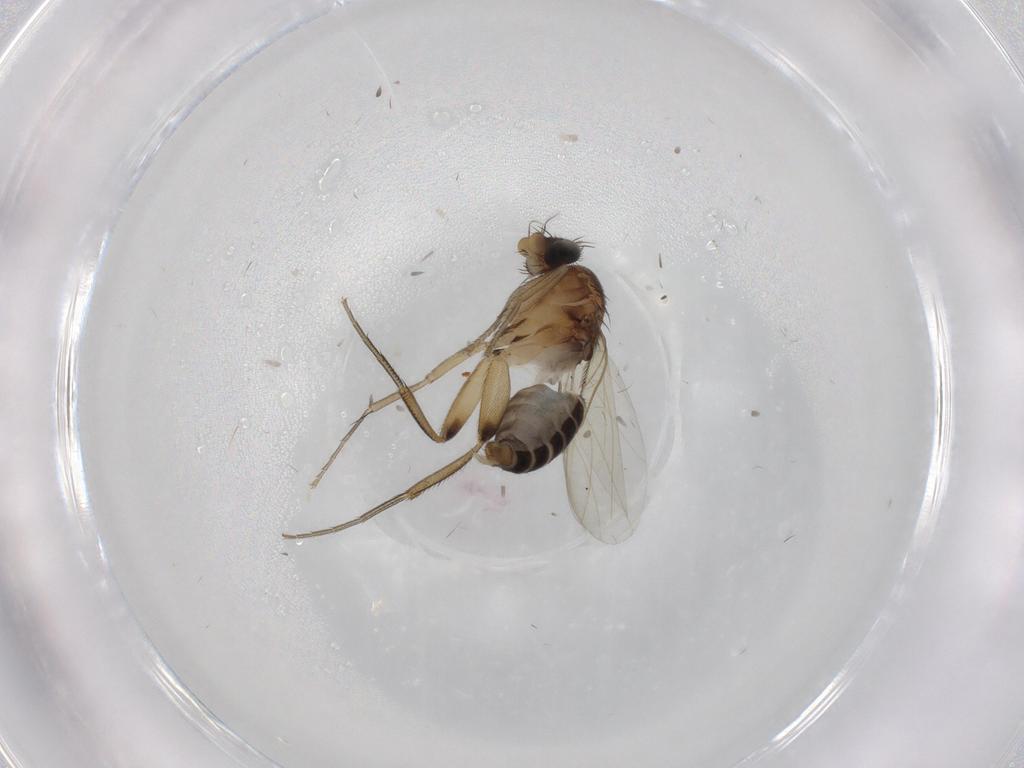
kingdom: Animalia
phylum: Arthropoda
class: Insecta
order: Diptera
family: Phoridae
